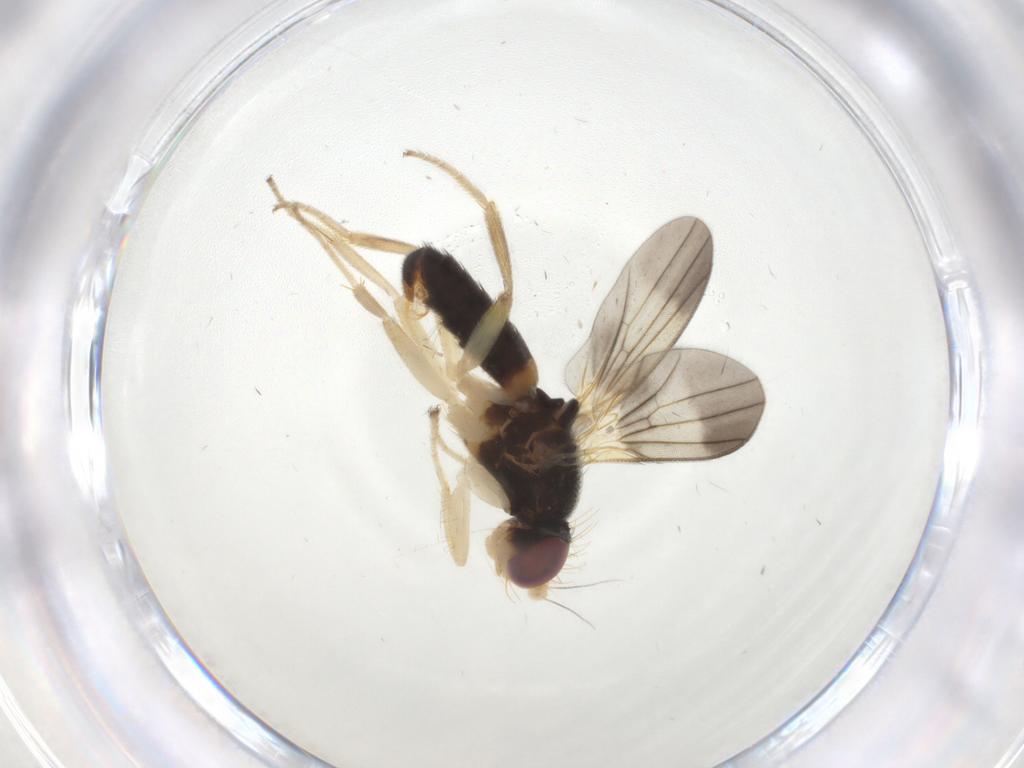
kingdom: Animalia
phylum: Arthropoda
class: Insecta
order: Diptera
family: Clusiidae
